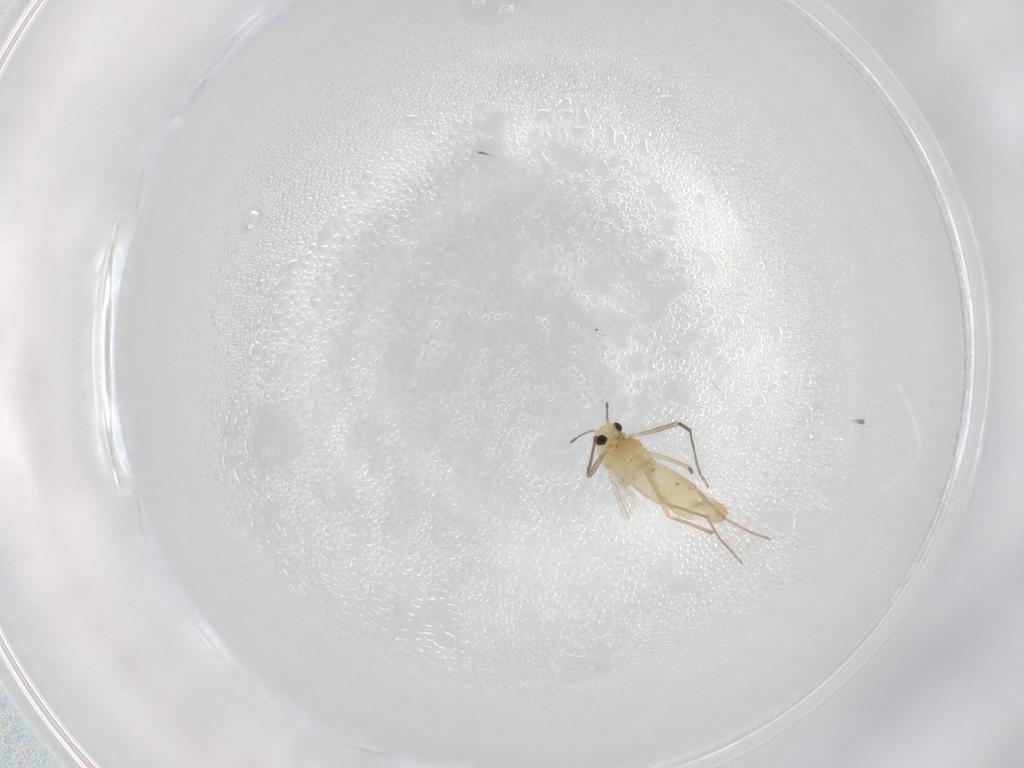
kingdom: Animalia
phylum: Arthropoda
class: Insecta
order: Diptera
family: Chironomidae
